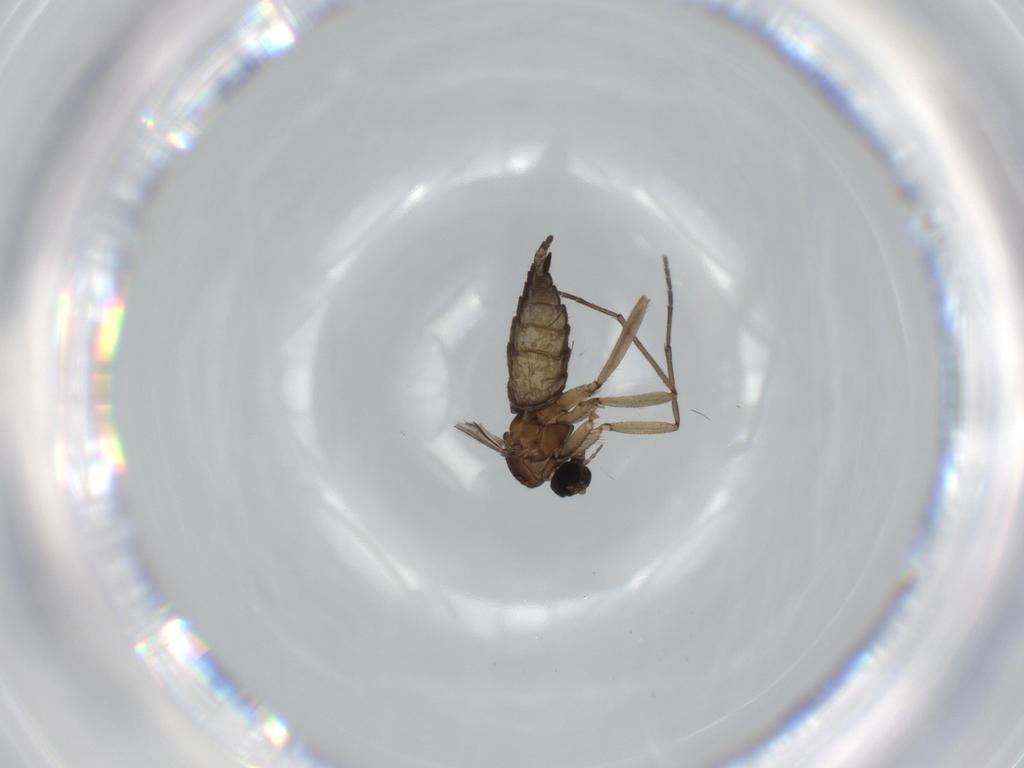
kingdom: Animalia
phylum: Arthropoda
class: Insecta
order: Diptera
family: Sciaridae
